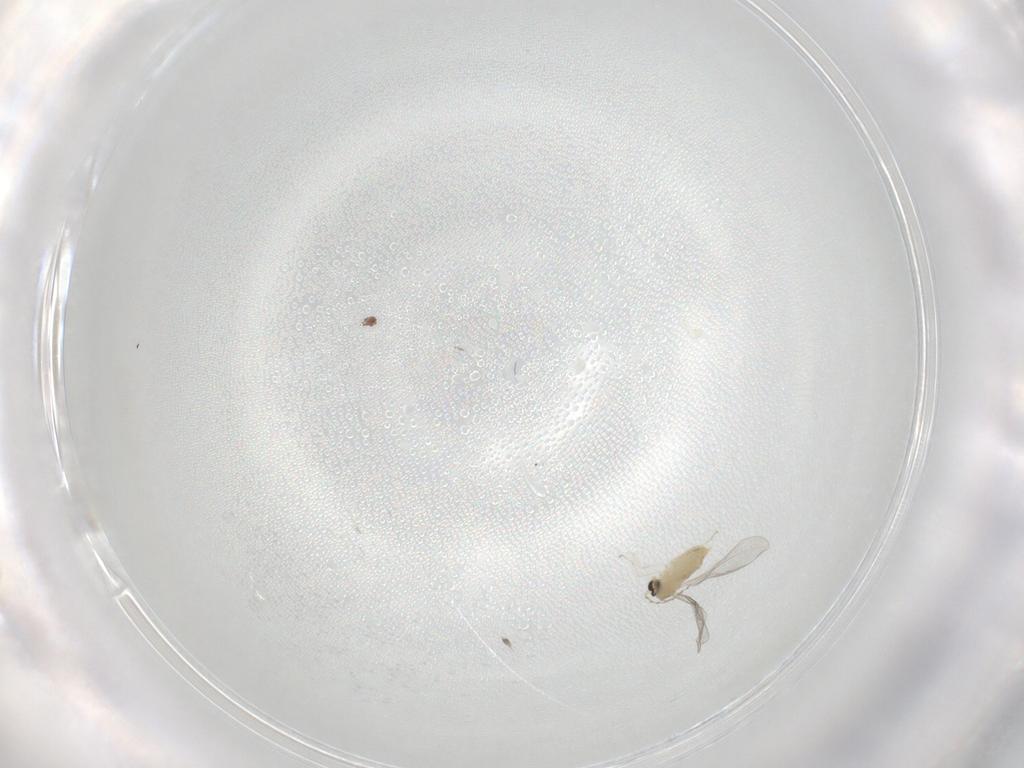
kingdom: Animalia
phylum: Arthropoda
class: Insecta
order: Diptera
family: Cecidomyiidae
